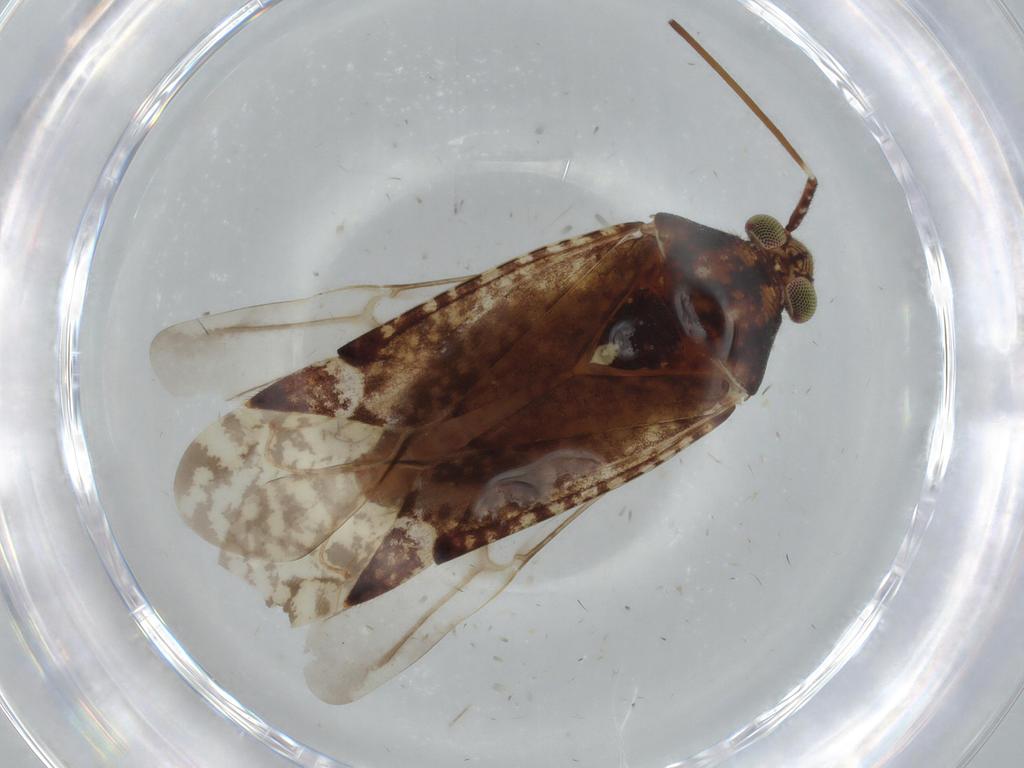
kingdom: Animalia
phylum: Arthropoda
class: Insecta
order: Hemiptera
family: Miridae
